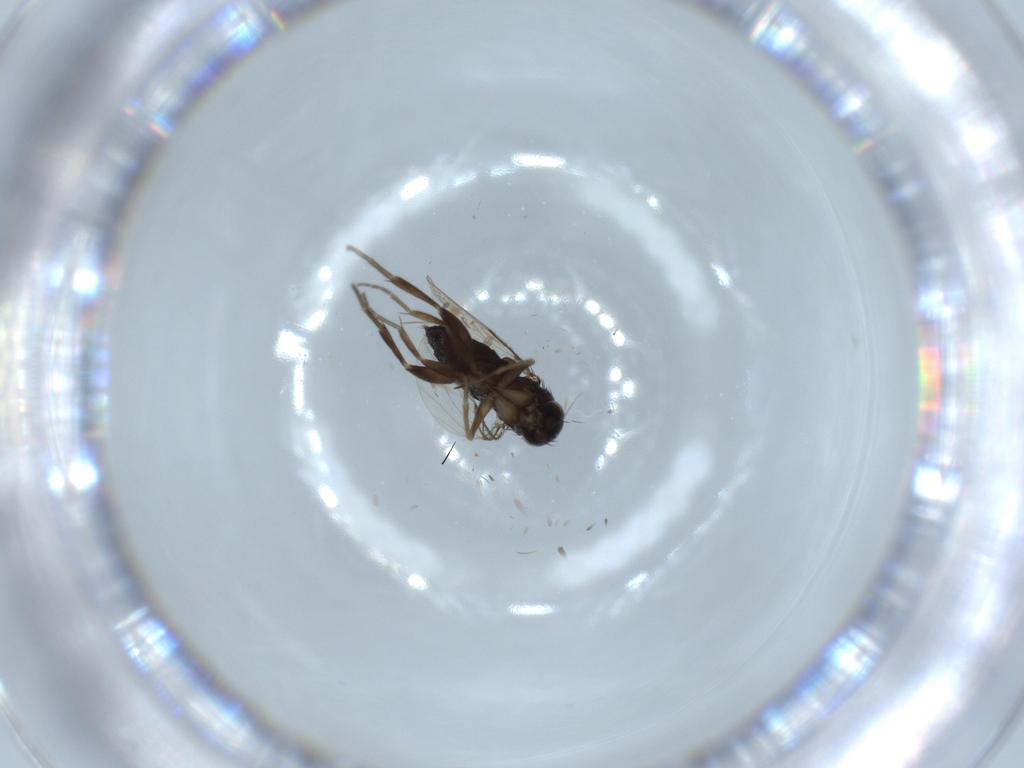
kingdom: Animalia
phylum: Arthropoda
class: Insecta
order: Diptera
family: Phoridae
